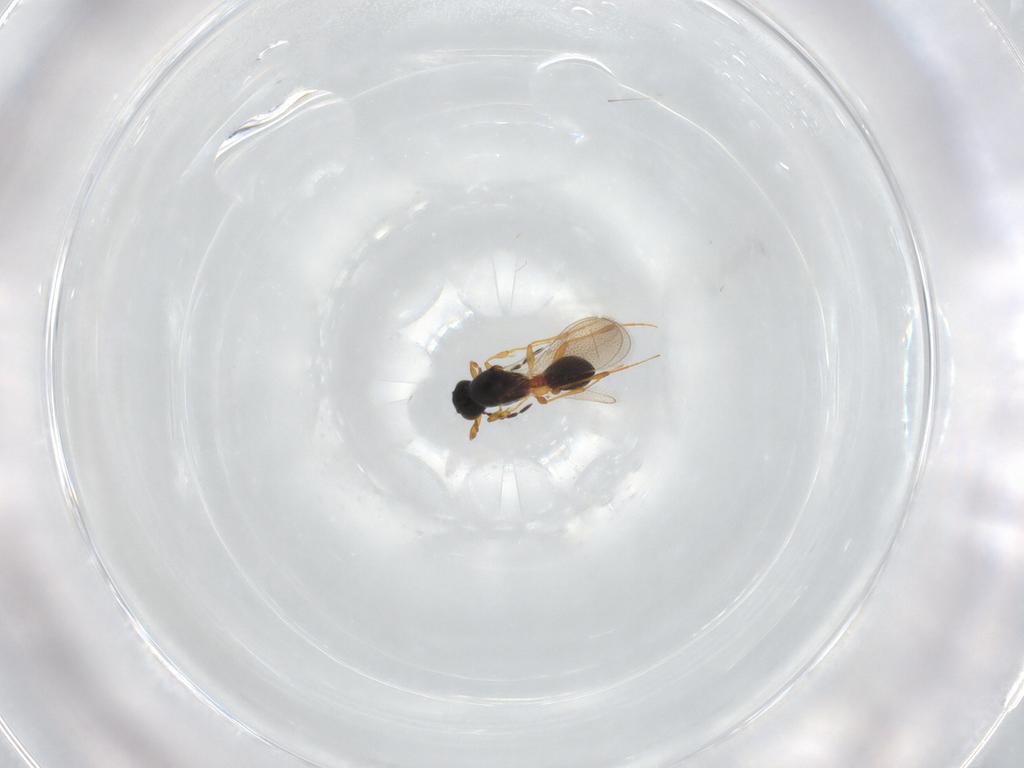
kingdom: Animalia
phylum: Arthropoda
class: Insecta
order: Hymenoptera
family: Platygastridae
